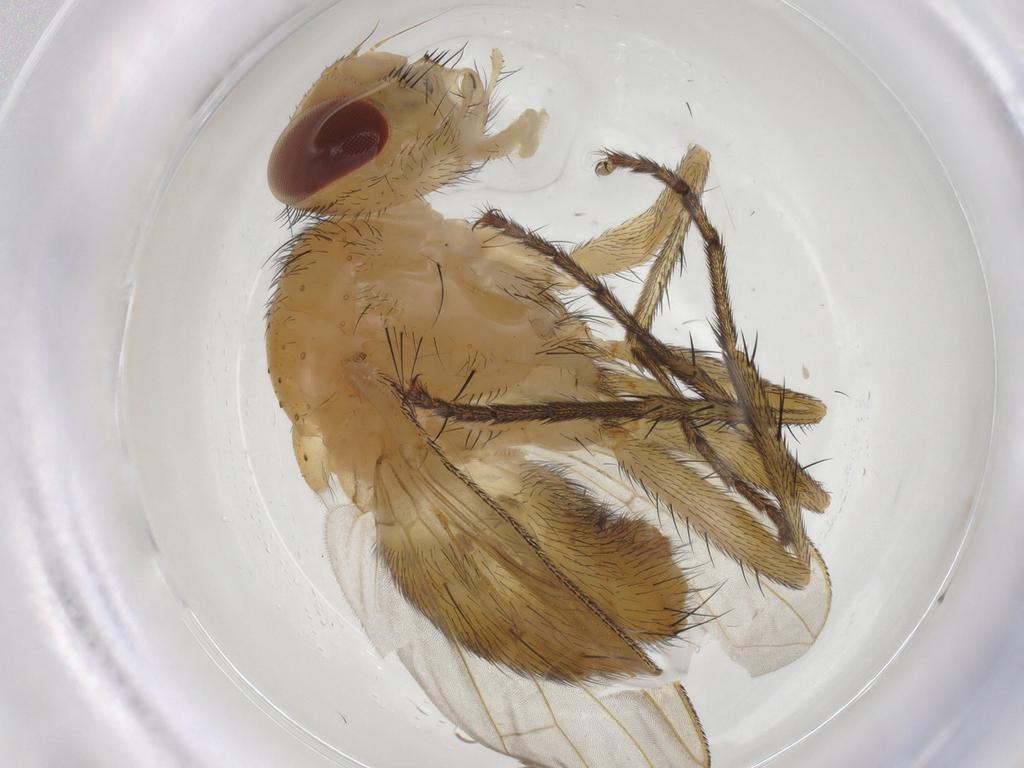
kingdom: Animalia
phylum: Arthropoda
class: Insecta
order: Diptera
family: Tachinidae
